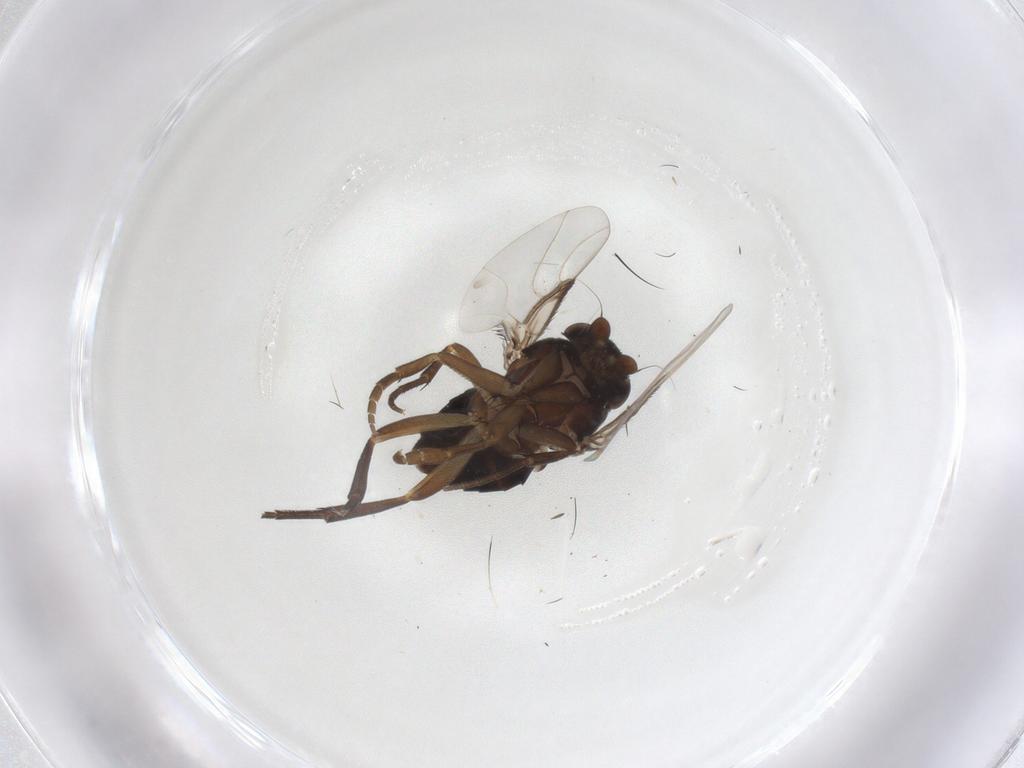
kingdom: Animalia
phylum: Arthropoda
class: Insecta
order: Diptera
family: Phoridae
